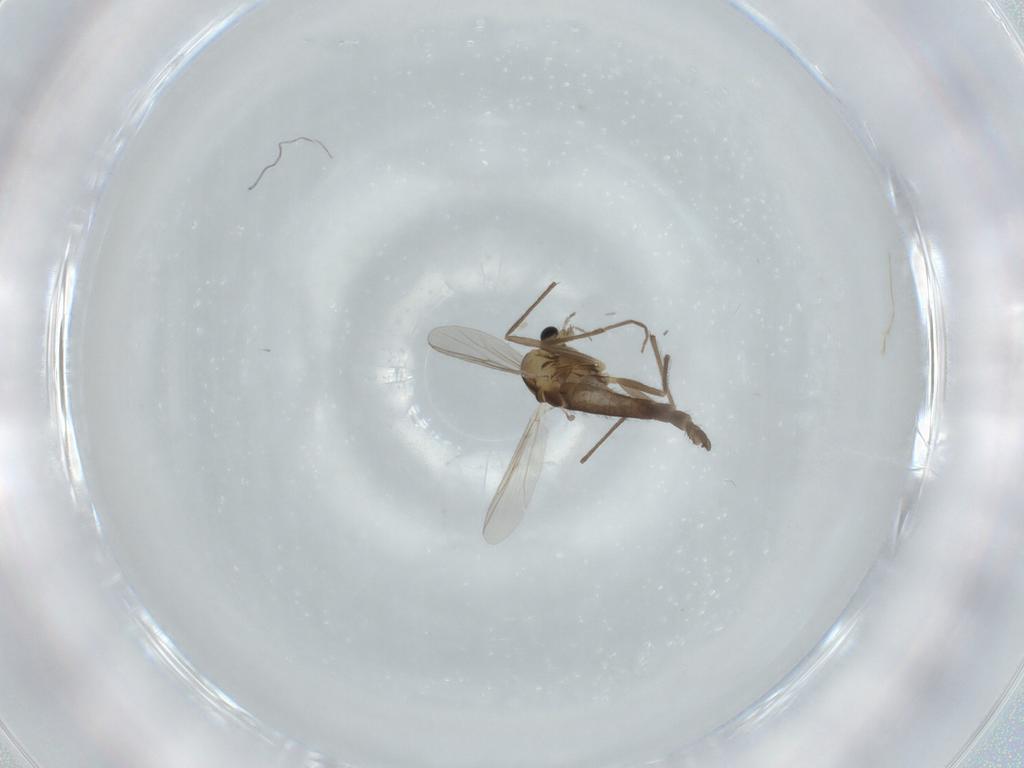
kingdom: Animalia
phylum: Arthropoda
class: Insecta
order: Diptera
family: Chironomidae
